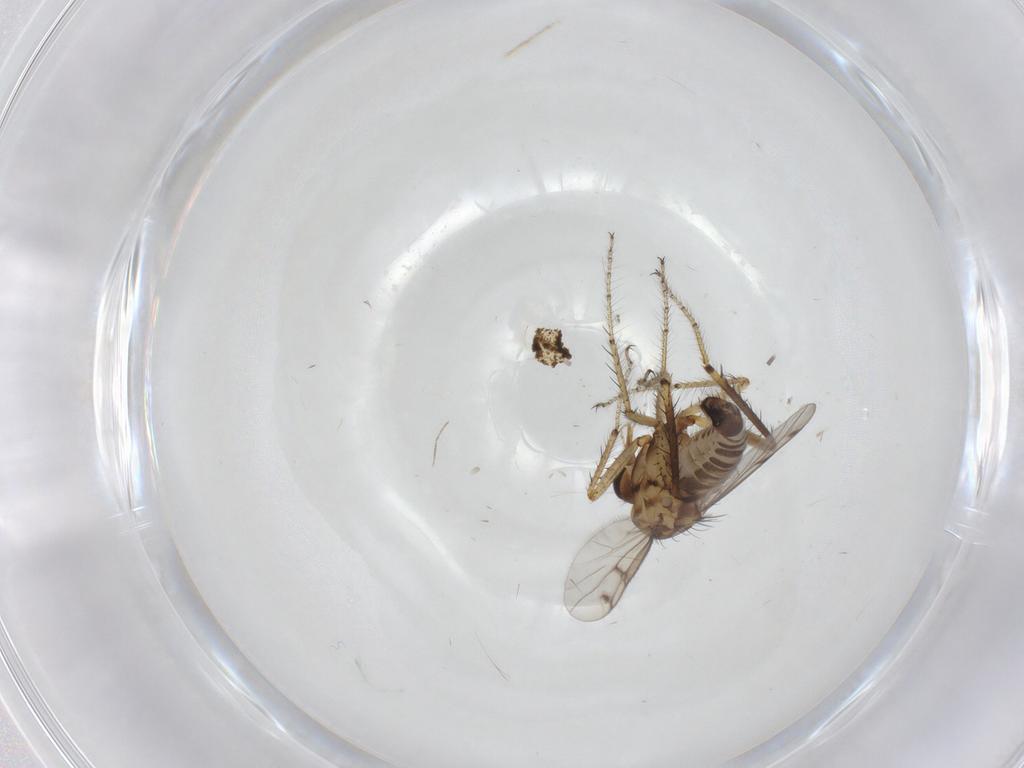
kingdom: Animalia
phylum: Arthropoda
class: Insecta
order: Diptera
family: Ceratopogonidae
